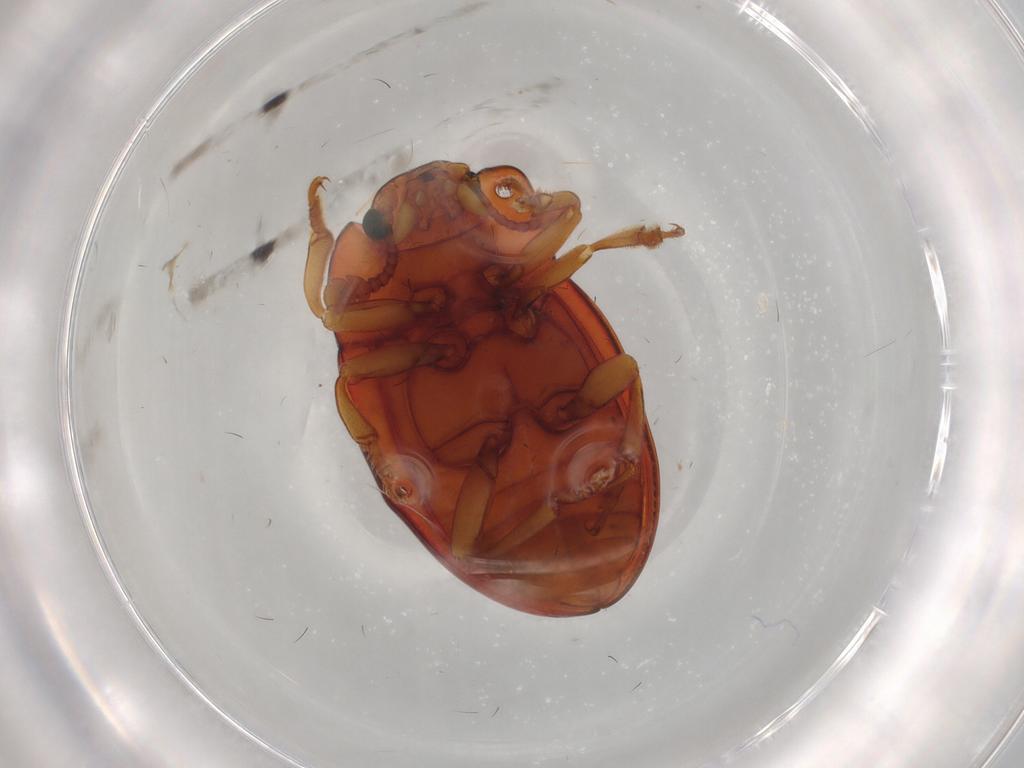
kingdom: Animalia
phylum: Arthropoda
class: Insecta
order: Coleoptera
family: Erotylidae
